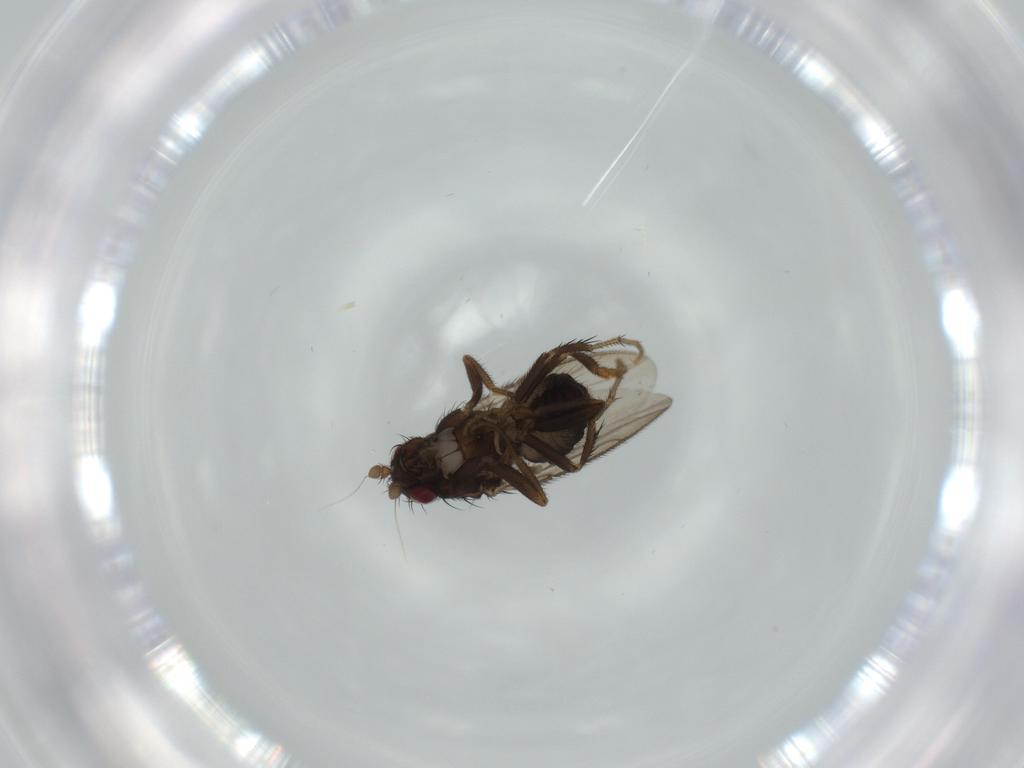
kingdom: Animalia
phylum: Arthropoda
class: Insecta
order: Diptera
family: Sphaeroceridae
